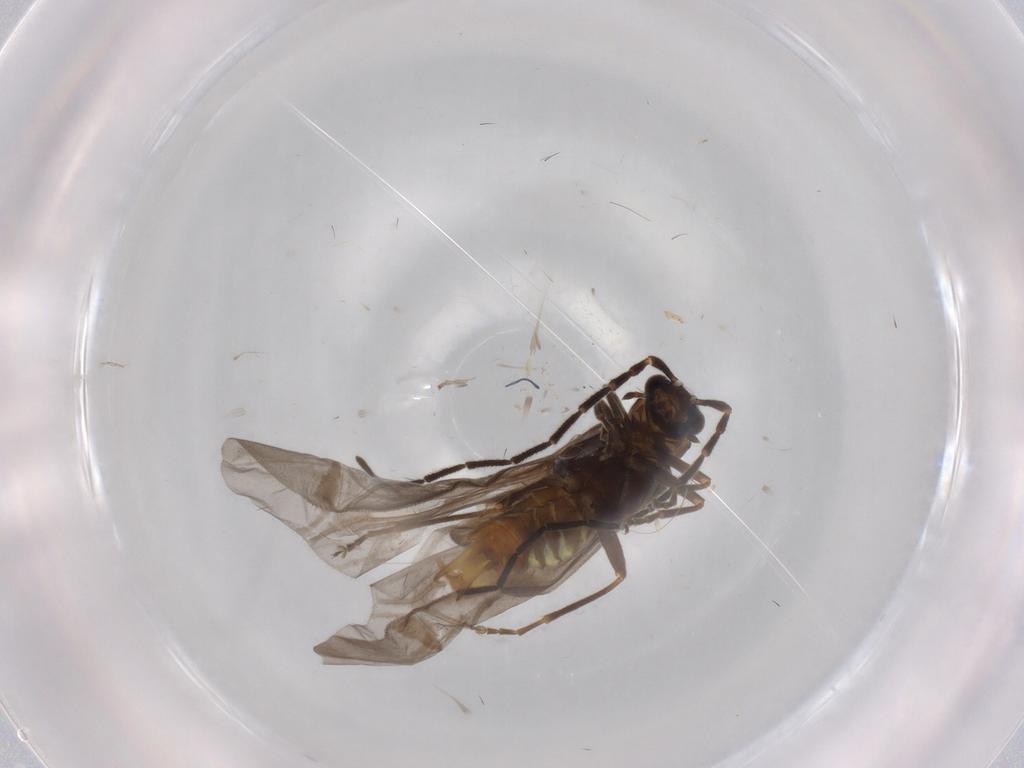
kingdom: Animalia
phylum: Arthropoda
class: Insecta
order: Coleoptera
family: Cantharidae
